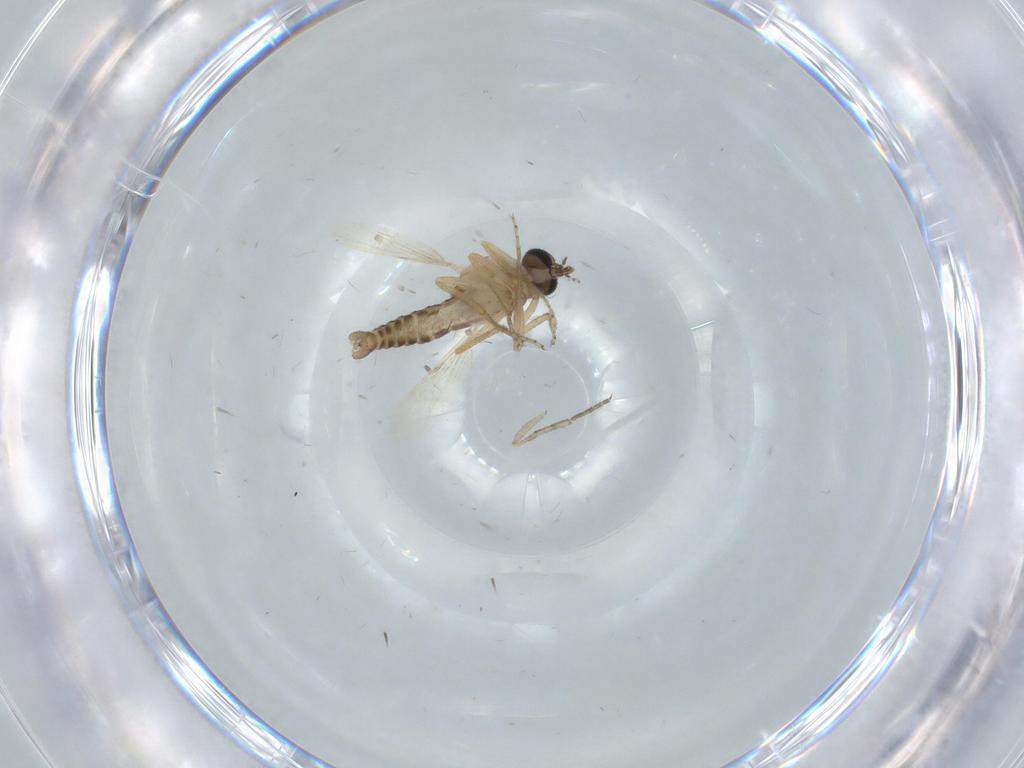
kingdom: Animalia
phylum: Arthropoda
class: Insecta
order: Diptera
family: Ceratopogonidae
